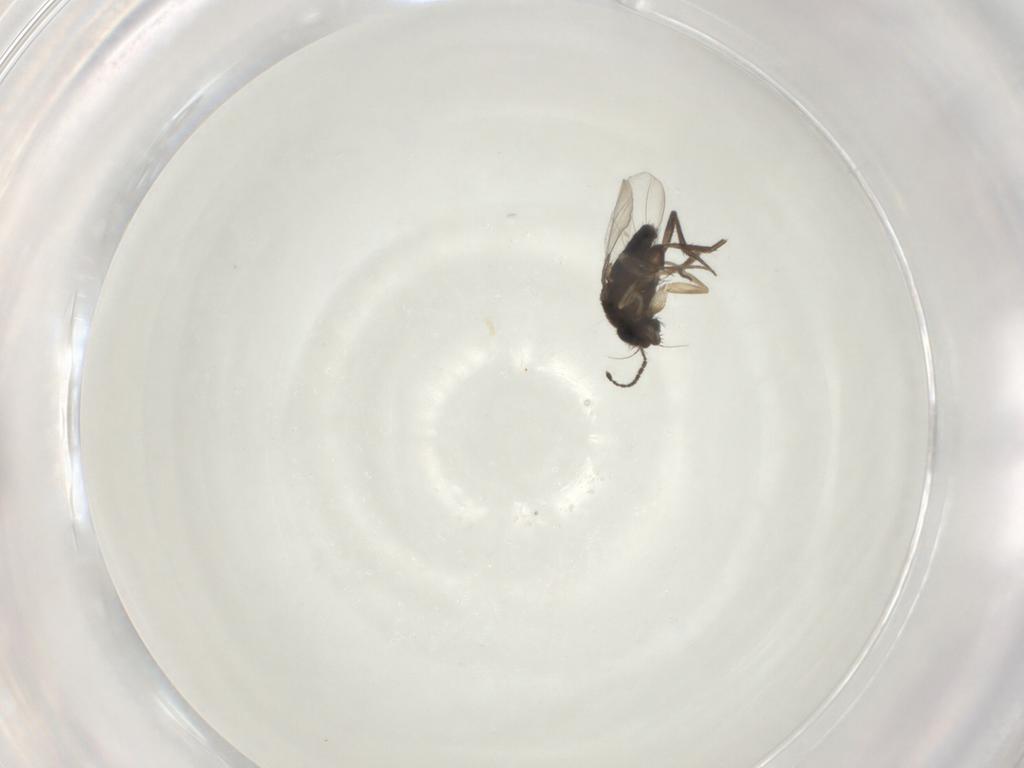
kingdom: Animalia
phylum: Arthropoda
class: Insecta
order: Diptera
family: Phoridae
